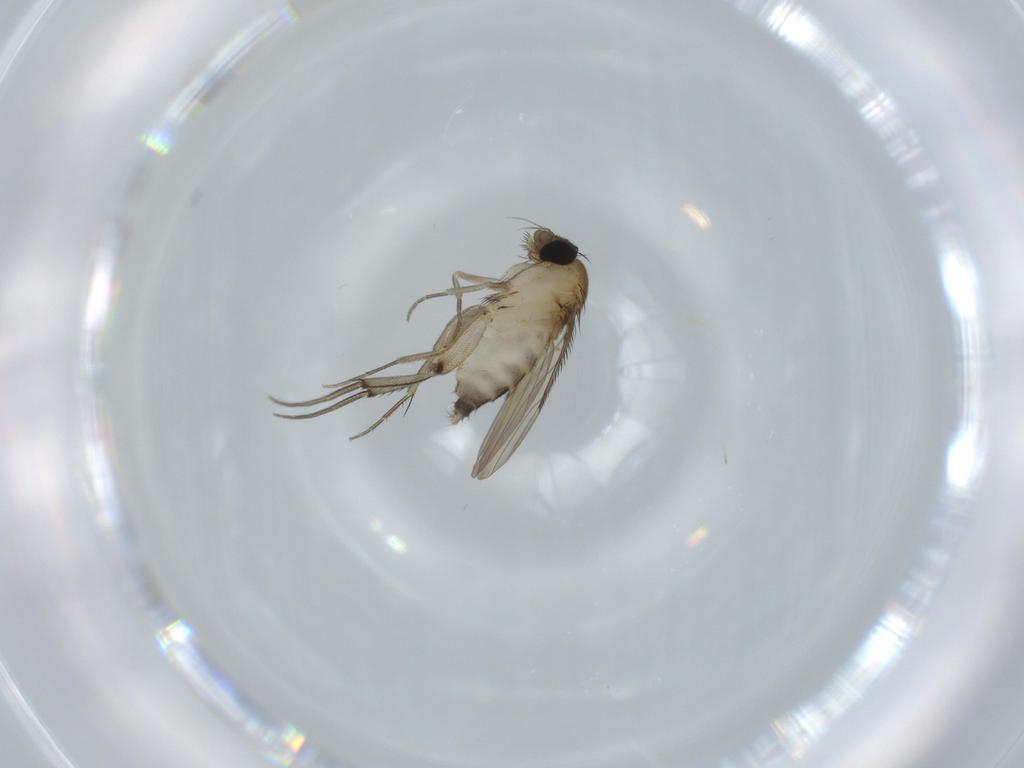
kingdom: Animalia
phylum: Arthropoda
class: Insecta
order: Diptera
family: Phoridae
